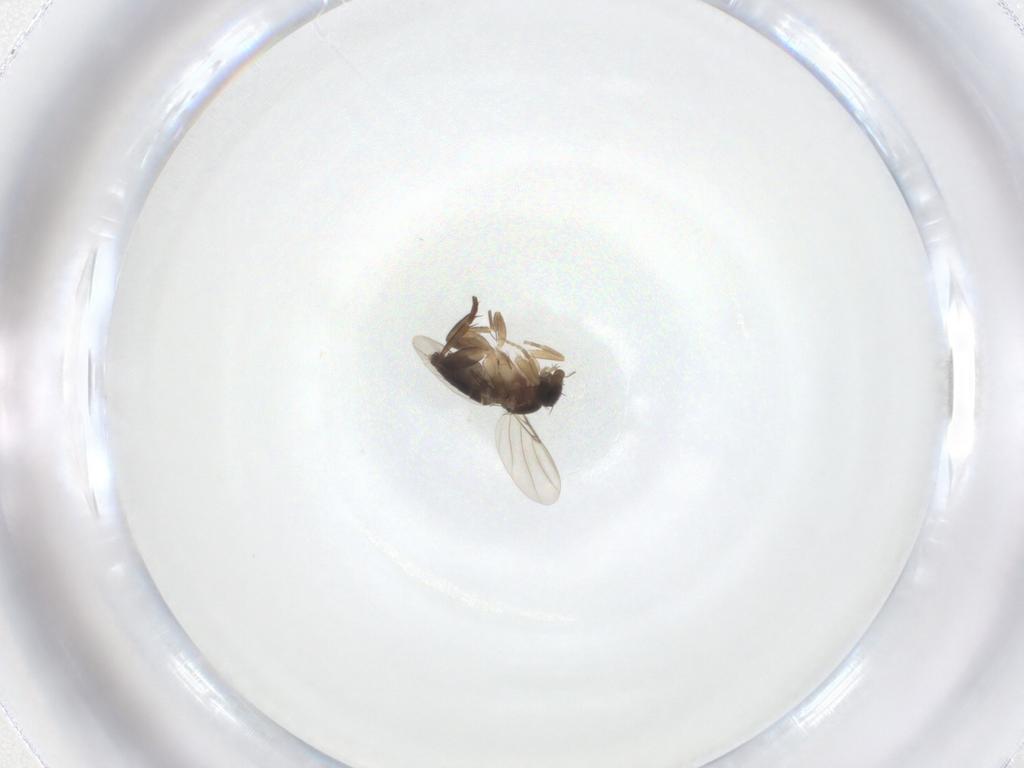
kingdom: Animalia
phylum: Arthropoda
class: Insecta
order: Diptera
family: Phoridae
